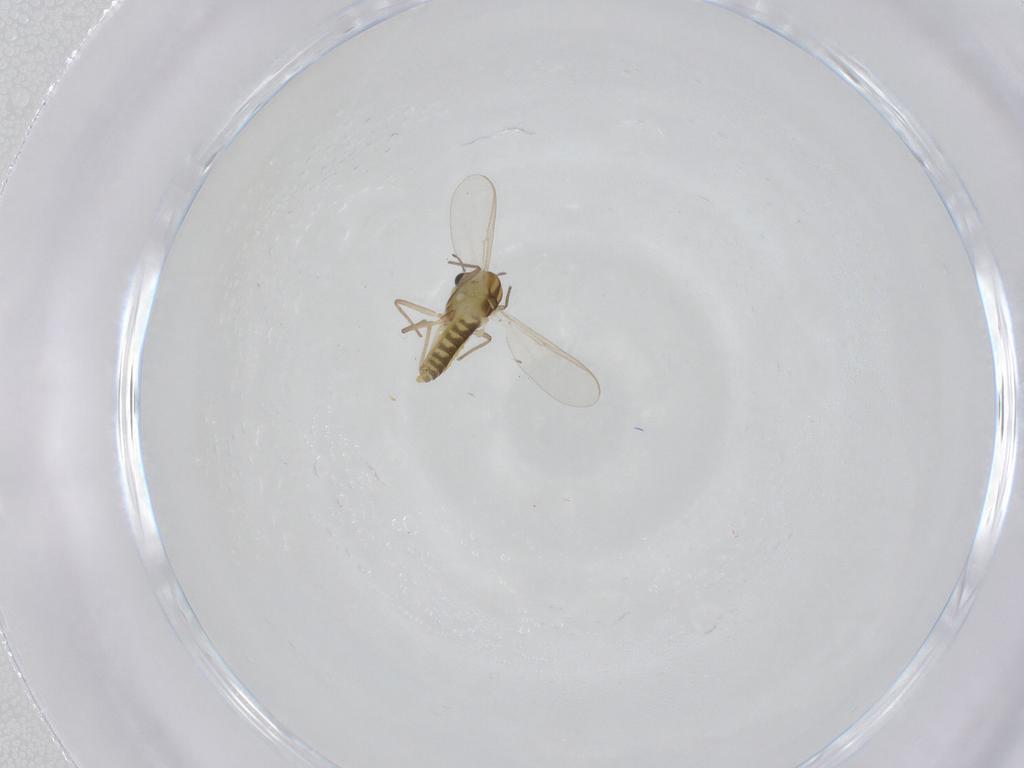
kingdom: Animalia
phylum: Arthropoda
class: Insecta
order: Diptera
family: Chironomidae
